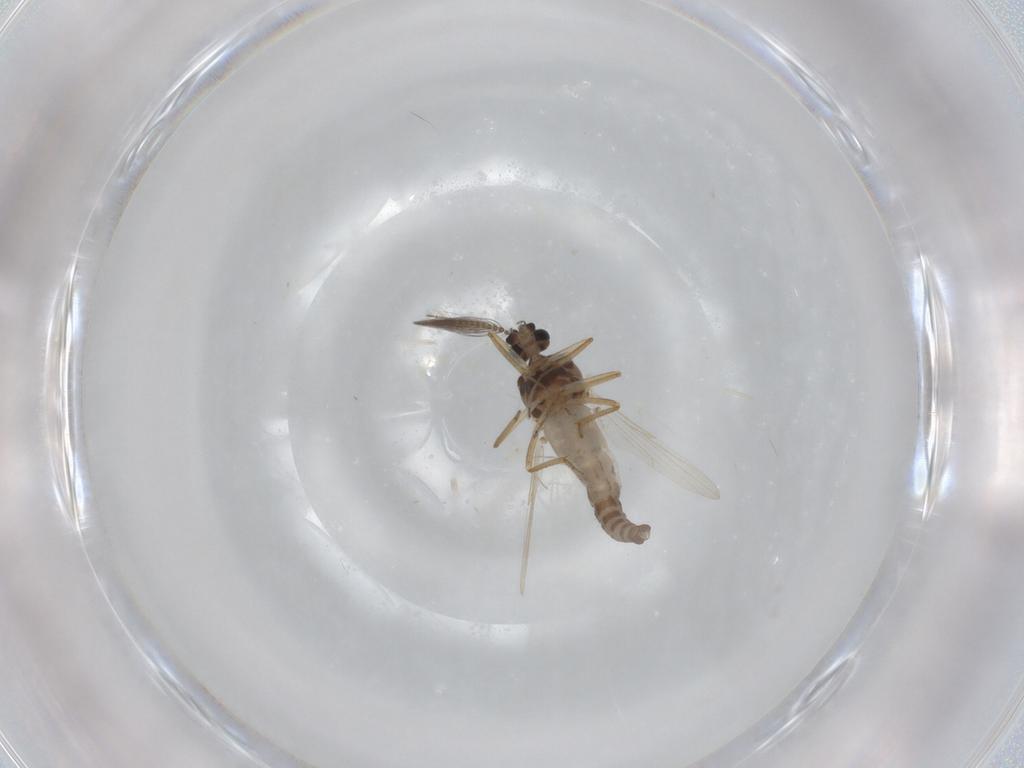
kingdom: Animalia
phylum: Arthropoda
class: Insecta
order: Diptera
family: Ceratopogonidae
